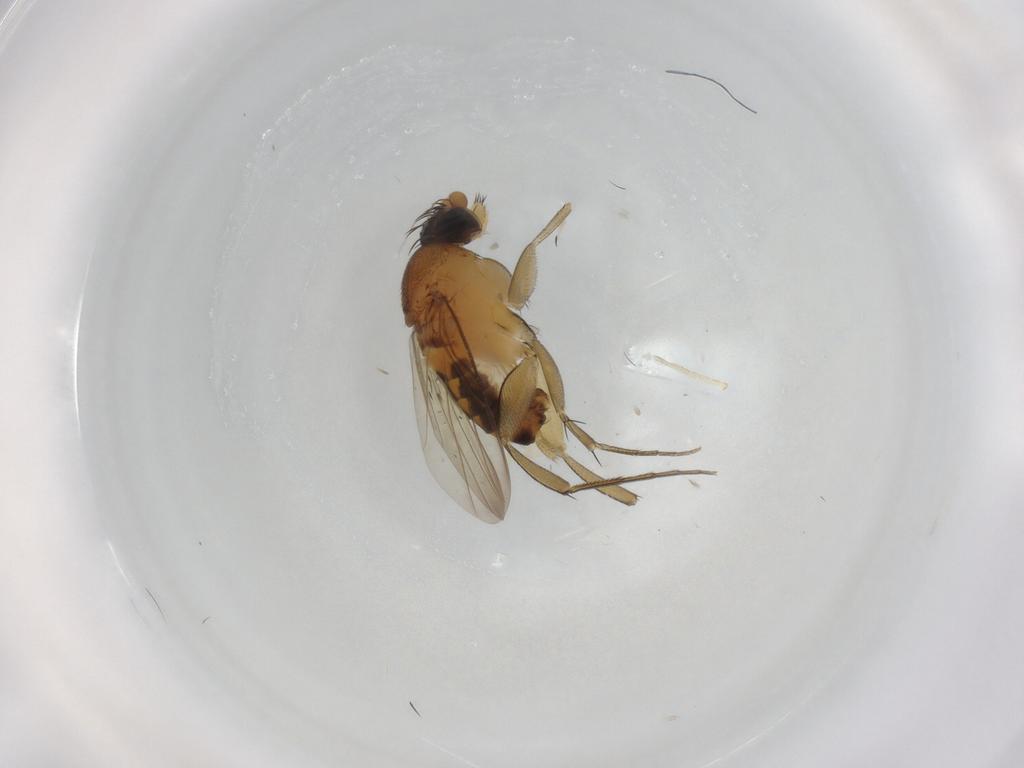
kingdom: Animalia
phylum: Arthropoda
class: Insecta
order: Diptera
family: Phoridae
